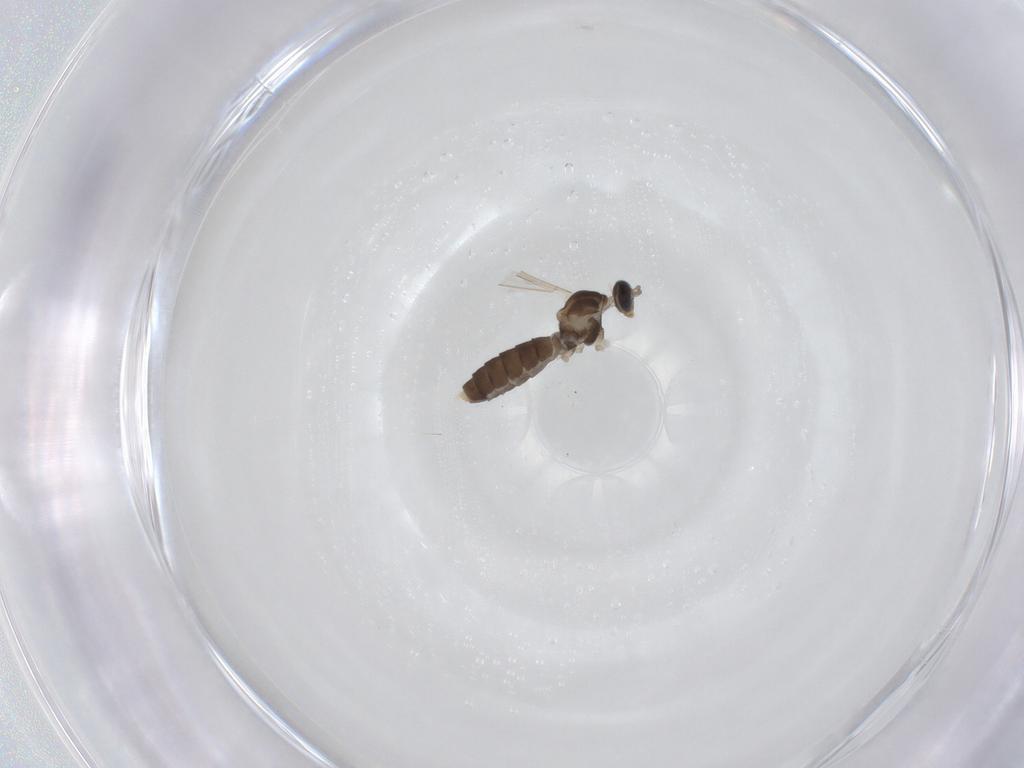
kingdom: Animalia
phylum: Arthropoda
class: Insecta
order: Diptera
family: Cecidomyiidae
